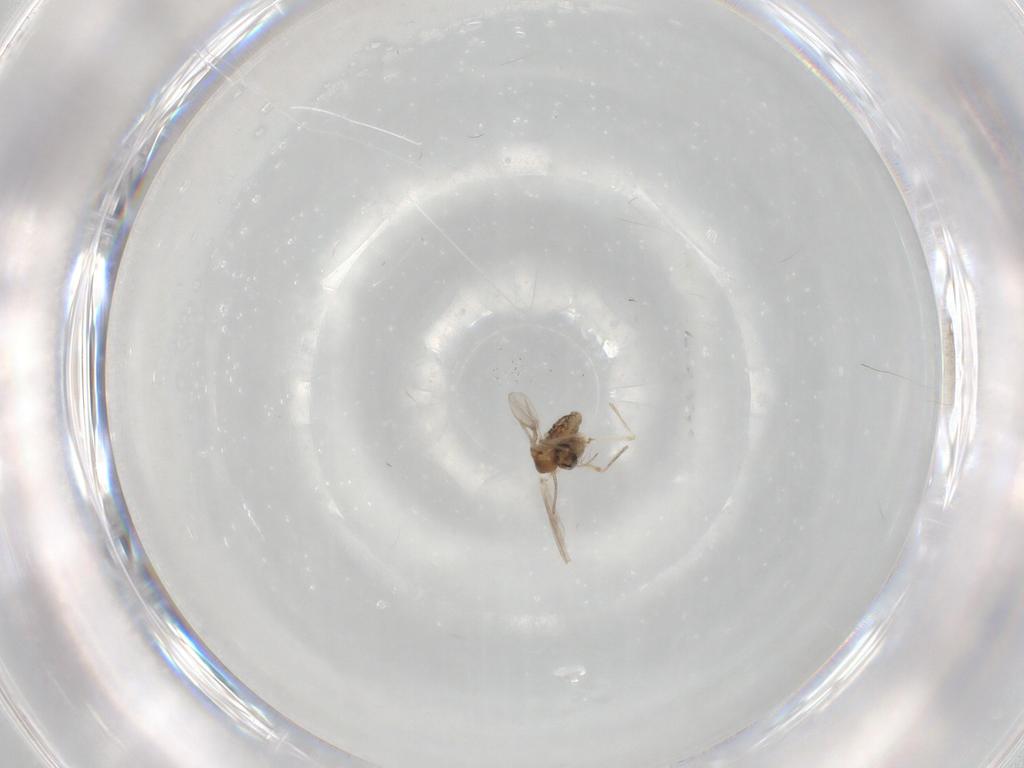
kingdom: Animalia
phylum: Arthropoda
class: Insecta
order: Diptera
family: Chironomidae
